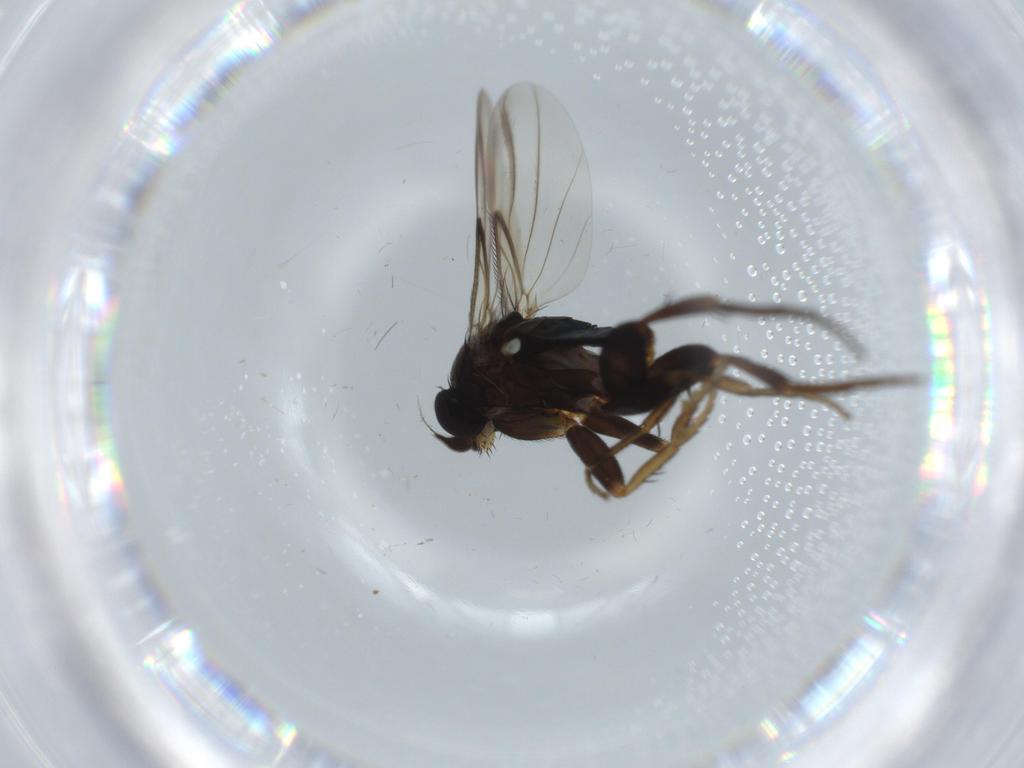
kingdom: Animalia
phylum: Arthropoda
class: Insecta
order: Diptera
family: Phoridae
